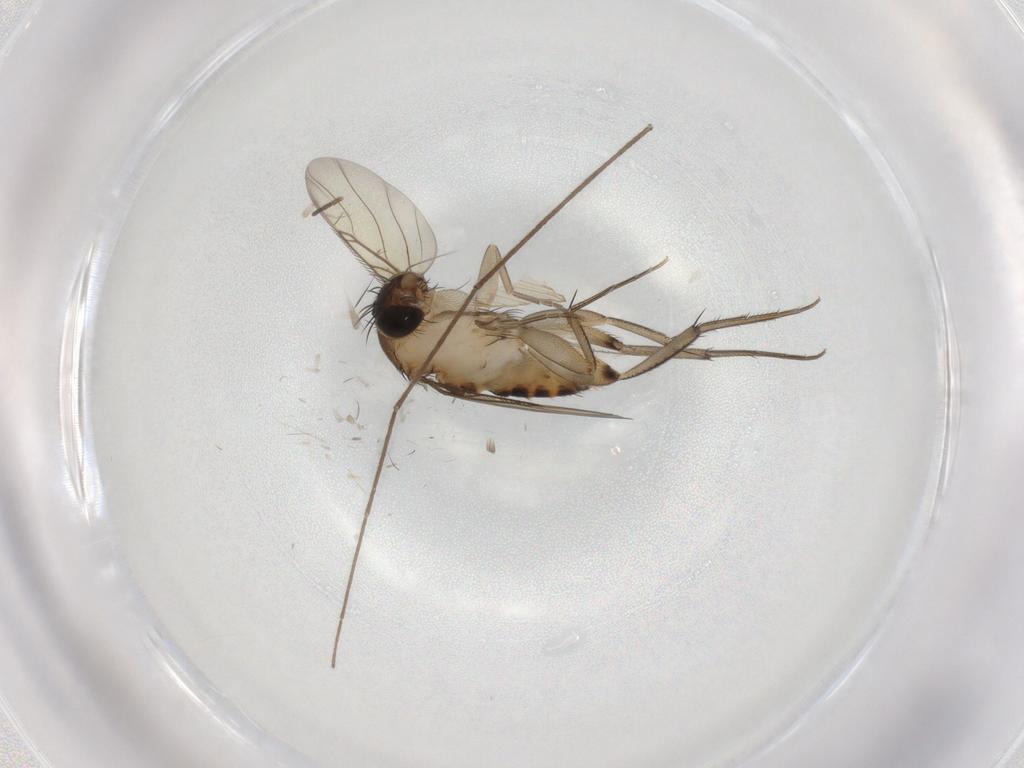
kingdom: Animalia
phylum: Arthropoda
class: Insecta
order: Diptera
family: Phoridae
